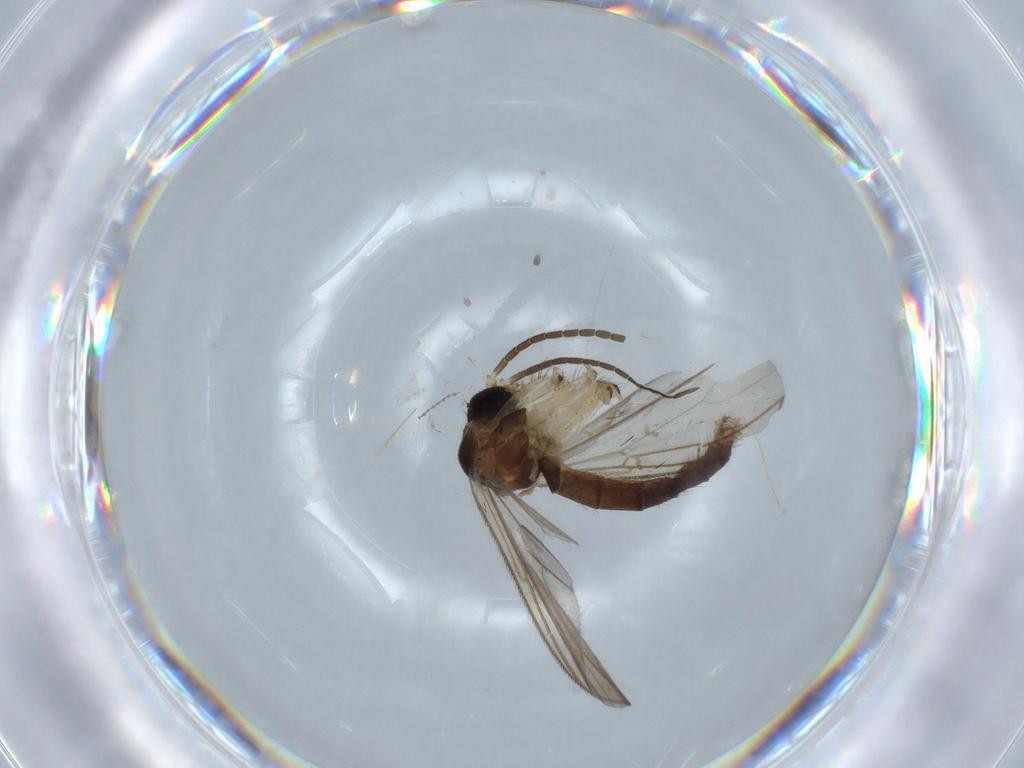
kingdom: Animalia
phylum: Arthropoda
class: Insecta
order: Diptera
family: Mycetophilidae
